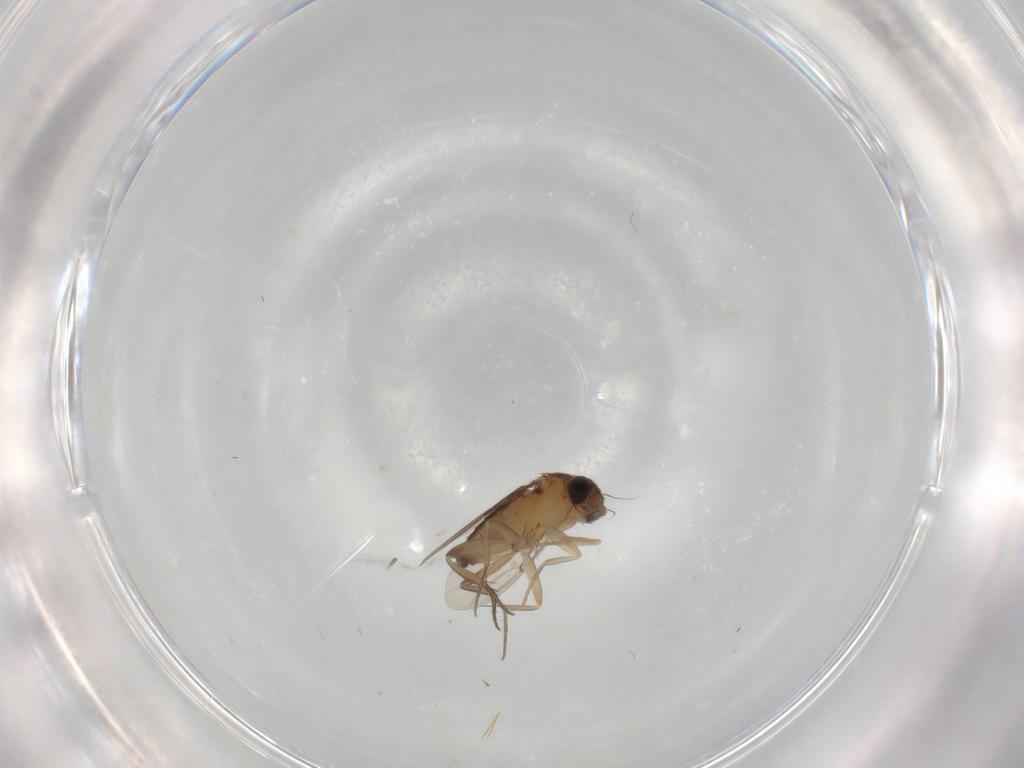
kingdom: Animalia
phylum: Arthropoda
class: Insecta
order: Diptera
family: Phoridae
